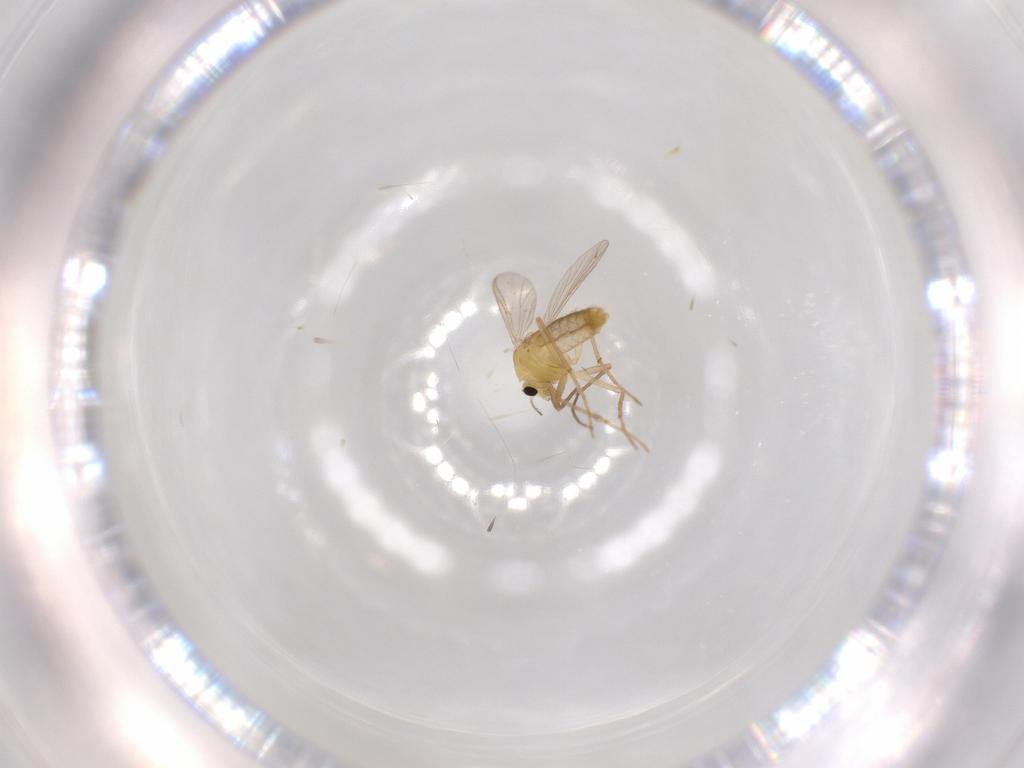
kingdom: Animalia
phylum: Arthropoda
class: Insecta
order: Diptera
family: Chironomidae
